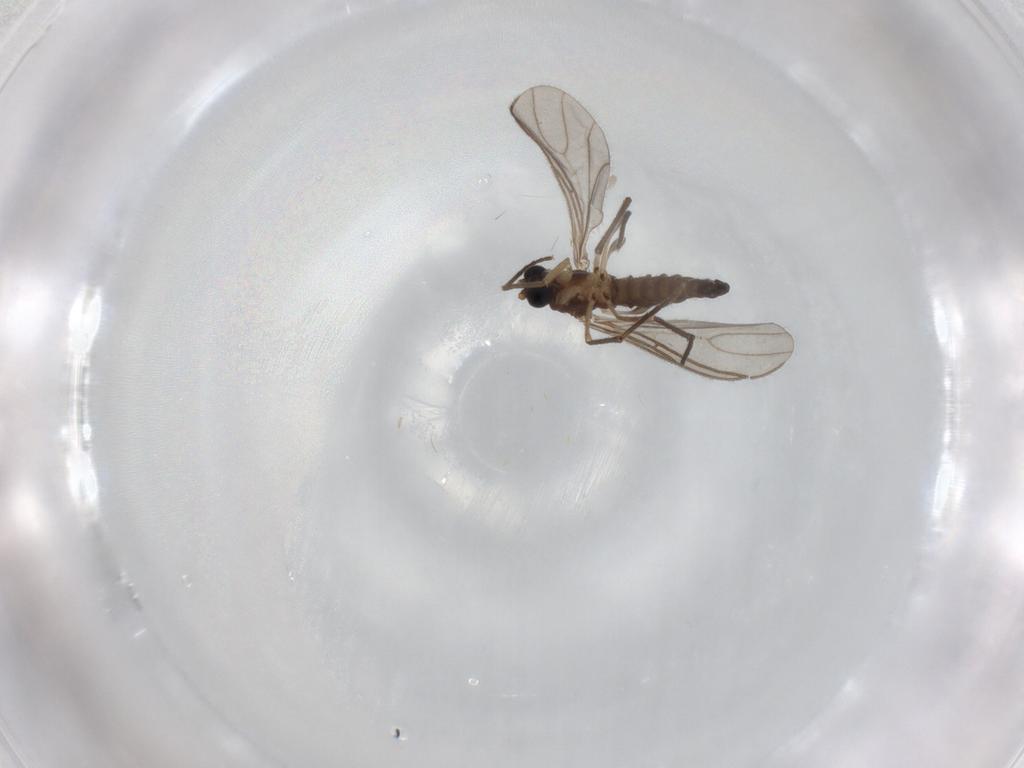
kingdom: Animalia
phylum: Arthropoda
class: Insecta
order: Diptera
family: Sciaridae
